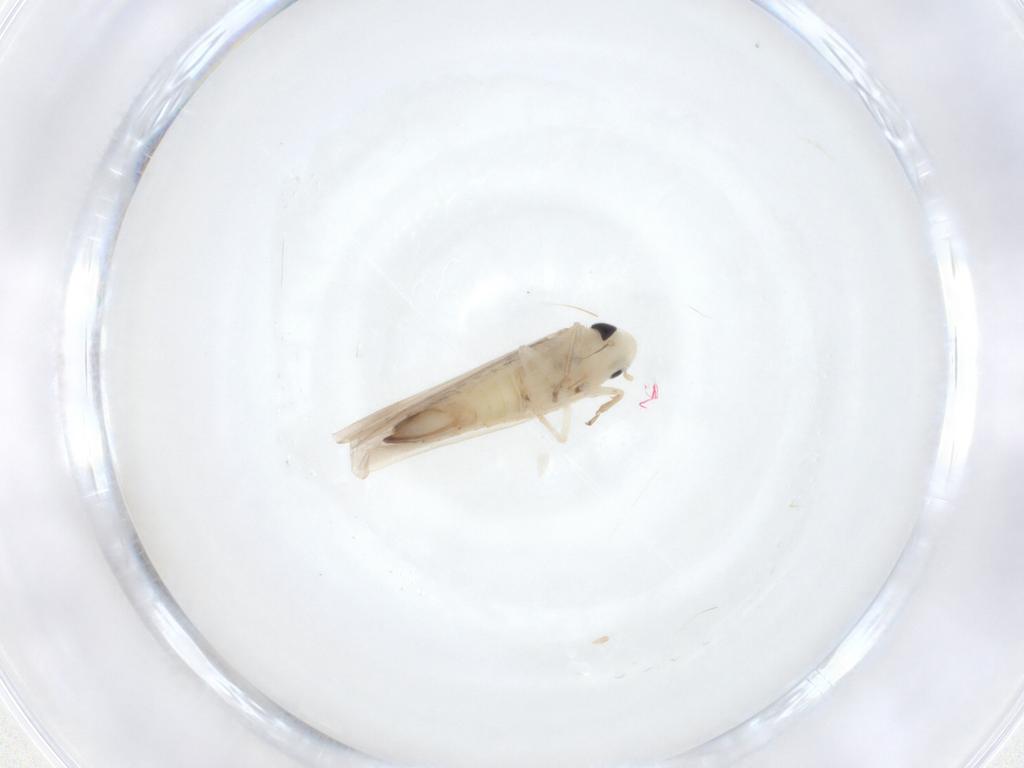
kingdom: Animalia
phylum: Arthropoda
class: Insecta
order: Hemiptera
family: Cicadellidae
